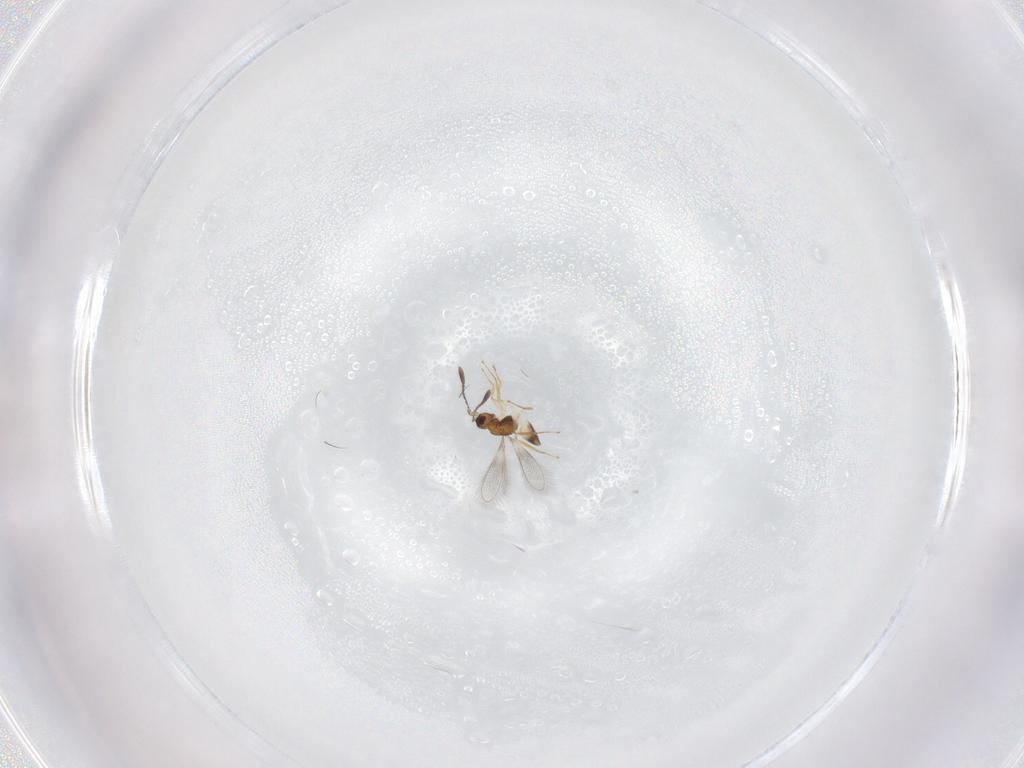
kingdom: Animalia
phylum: Arthropoda
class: Insecta
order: Hymenoptera
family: Mymaridae
